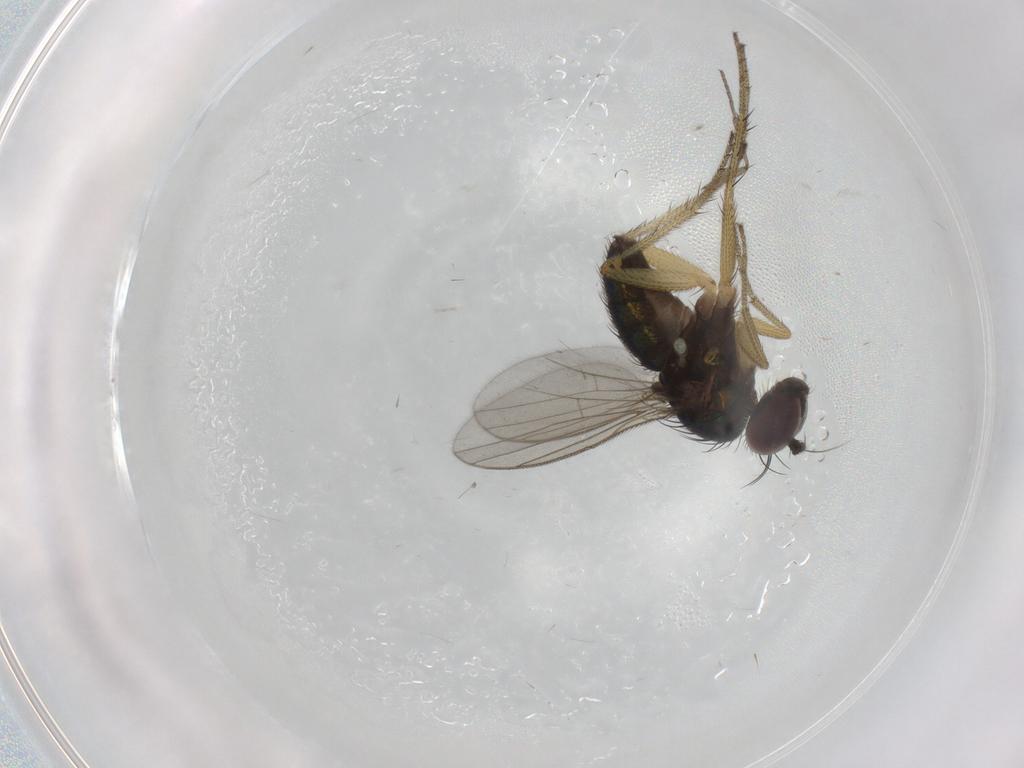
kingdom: Animalia
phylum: Arthropoda
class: Insecta
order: Diptera
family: Dolichopodidae
